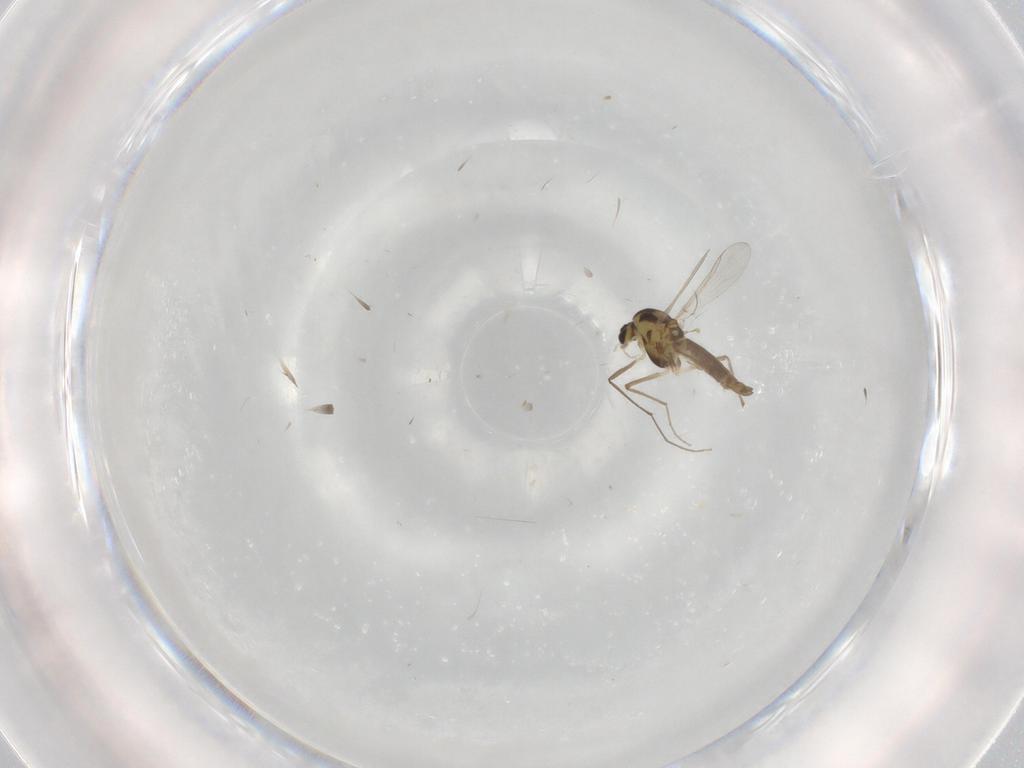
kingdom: Animalia
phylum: Arthropoda
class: Insecta
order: Diptera
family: Chironomidae
